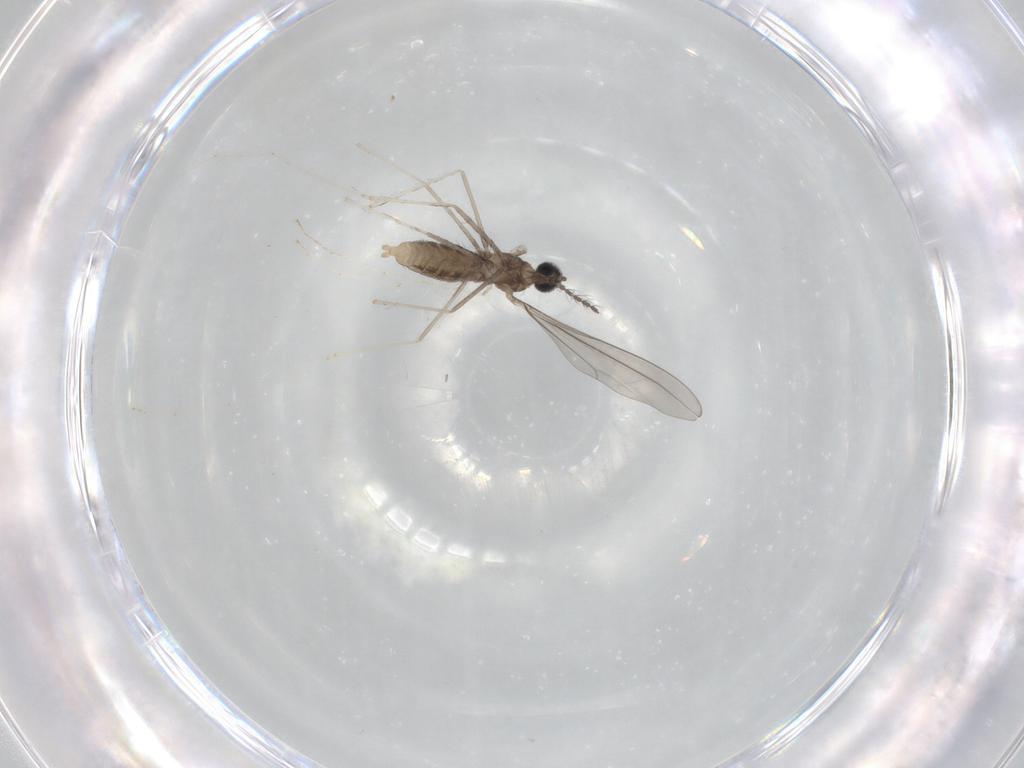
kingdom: Animalia
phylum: Arthropoda
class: Insecta
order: Diptera
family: Cecidomyiidae
